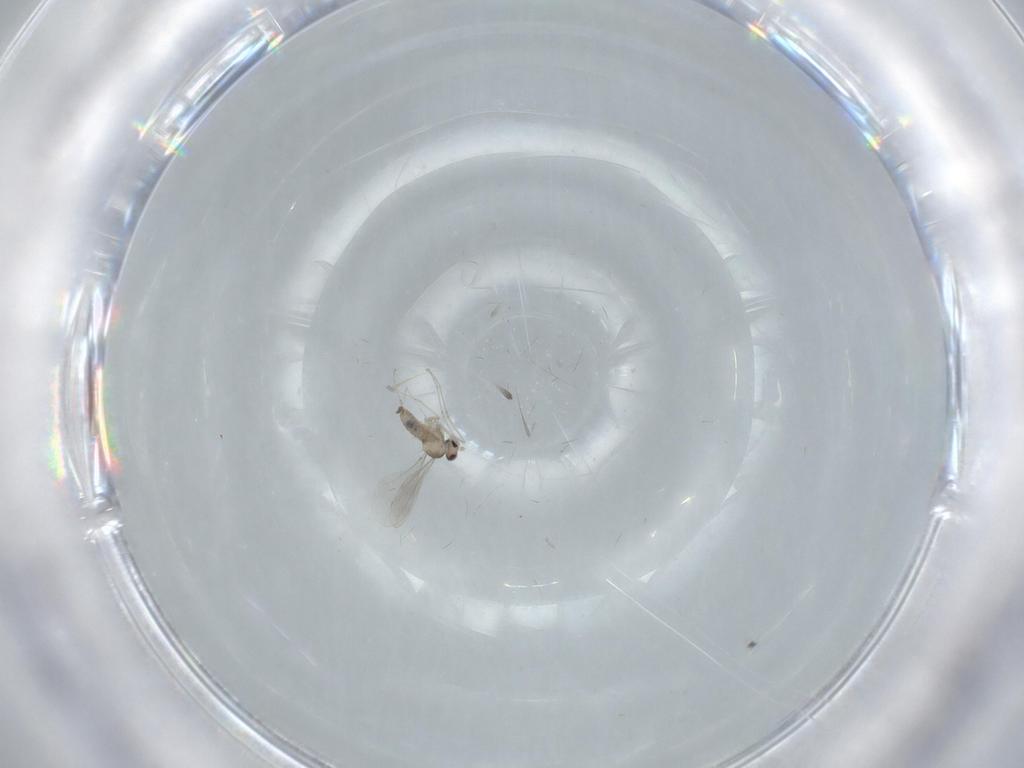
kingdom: Animalia
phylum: Arthropoda
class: Insecta
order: Diptera
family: Cecidomyiidae
